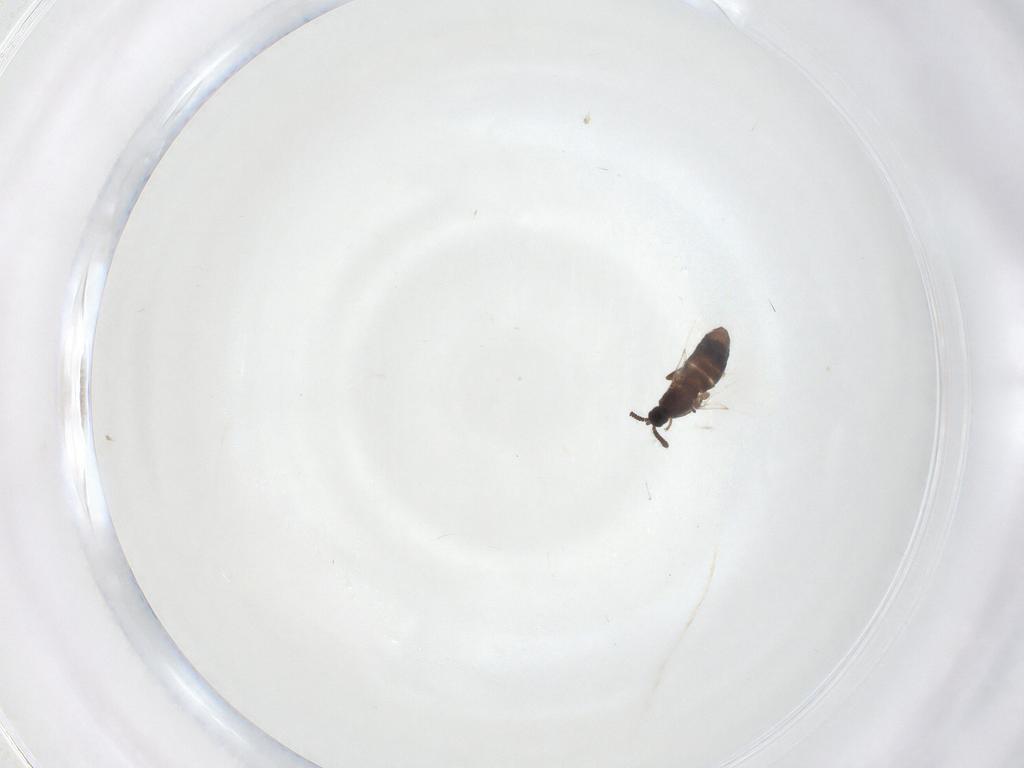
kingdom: Animalia
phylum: Arthropoda
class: Insecta
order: Diptera
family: Scatopsidae
